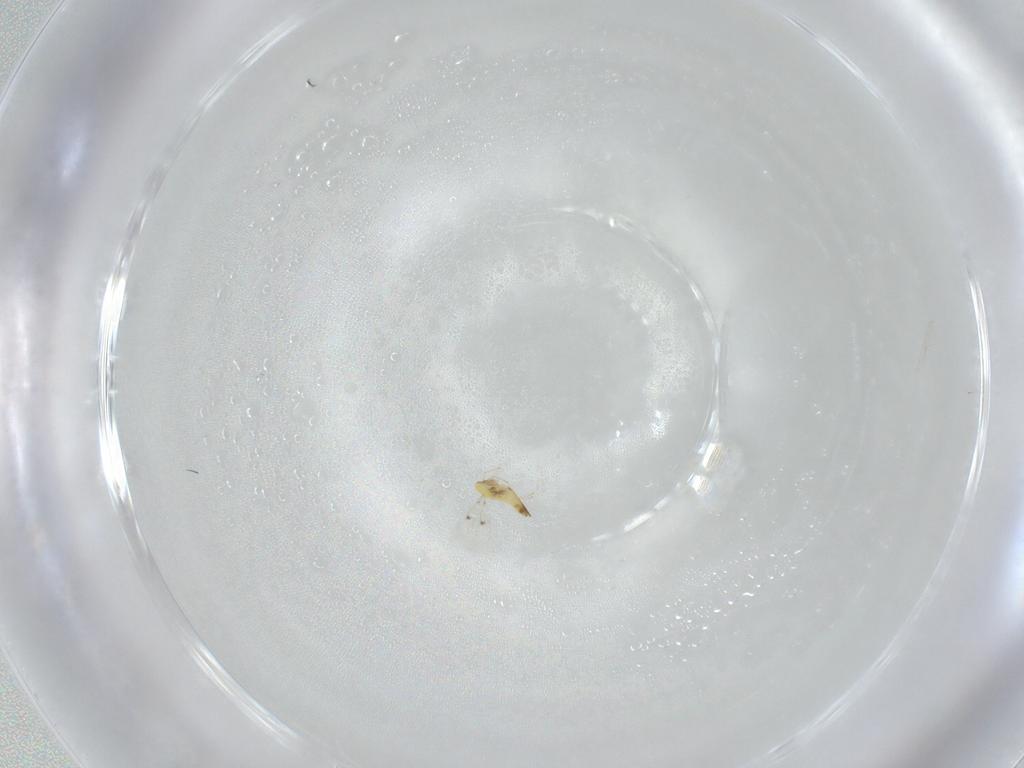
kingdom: Animalia
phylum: Arthropoda
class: Insecta
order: Hymenoptera
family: Trichogrammatidae
